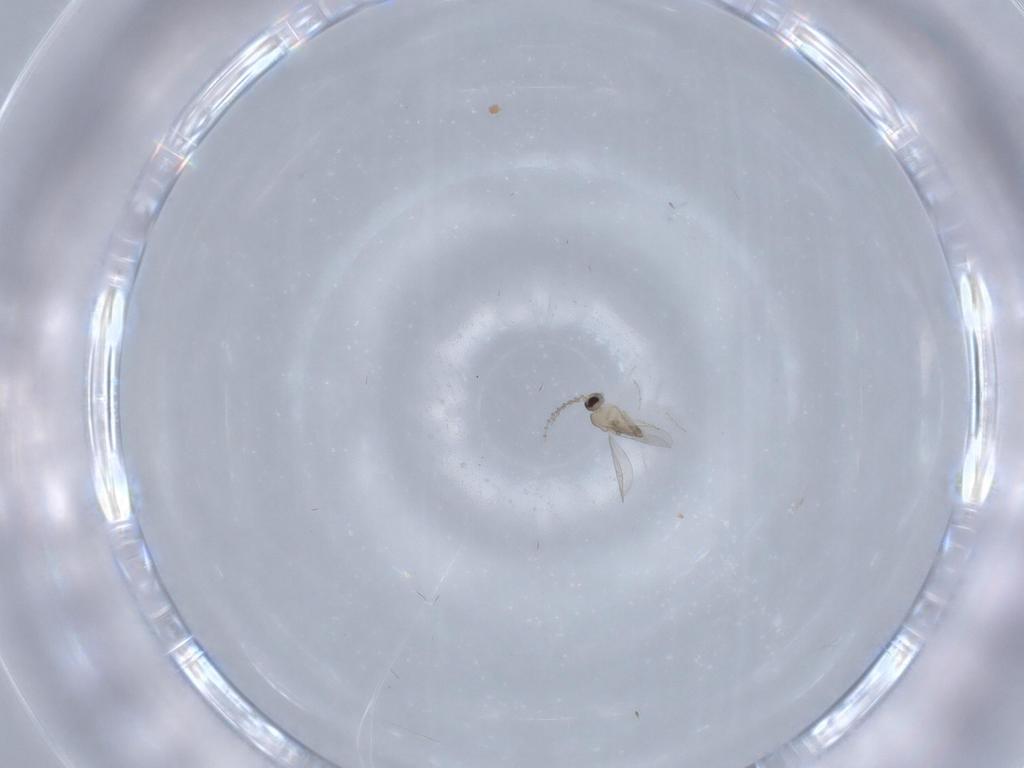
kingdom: Animalia
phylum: Arthropoda
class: Insecta
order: Diptera
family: Cecidomyiidae
